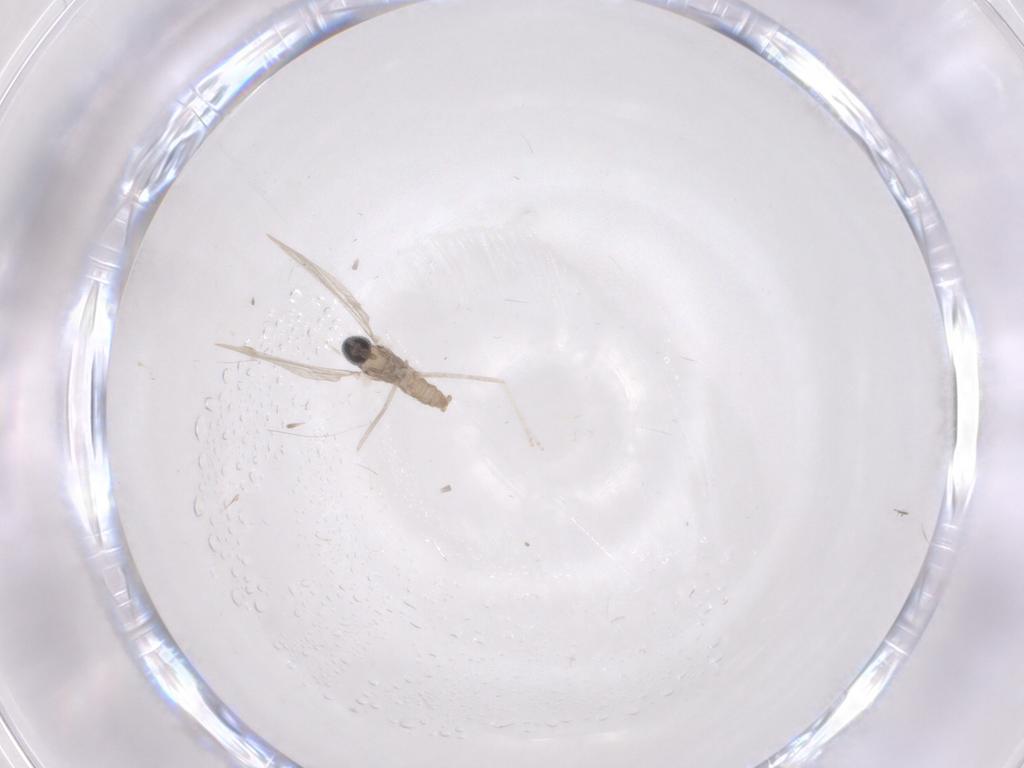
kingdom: Animalia
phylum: Arthropoda
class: Insecta
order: Diptera
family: Cecidomyiidae
